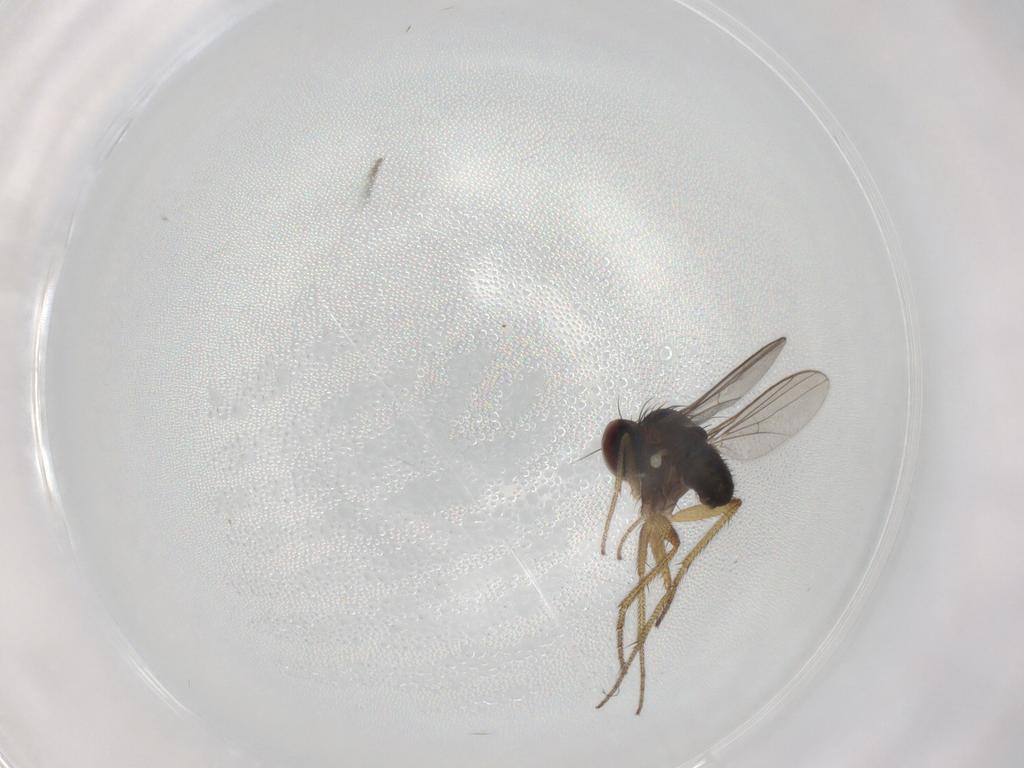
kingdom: Animalia
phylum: Arthropoda
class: Insecta
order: Diptera
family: Chironomidae
